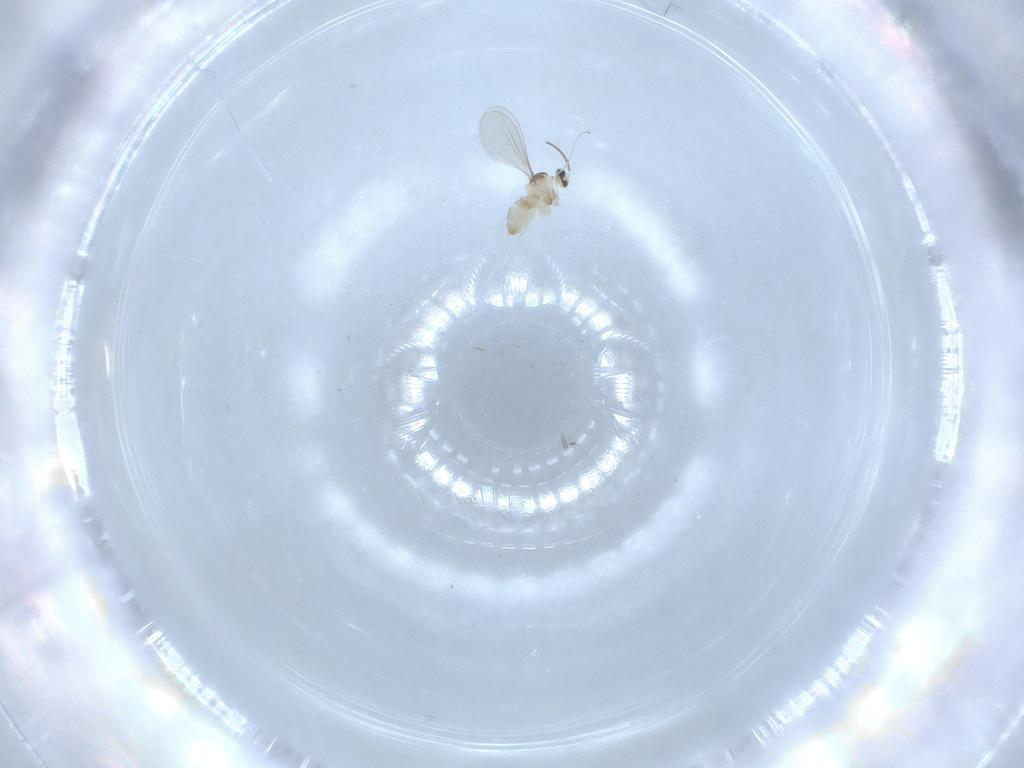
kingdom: Animalia
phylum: Arthropoda
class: Insecta
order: Diptera
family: Cecidomyiidae
